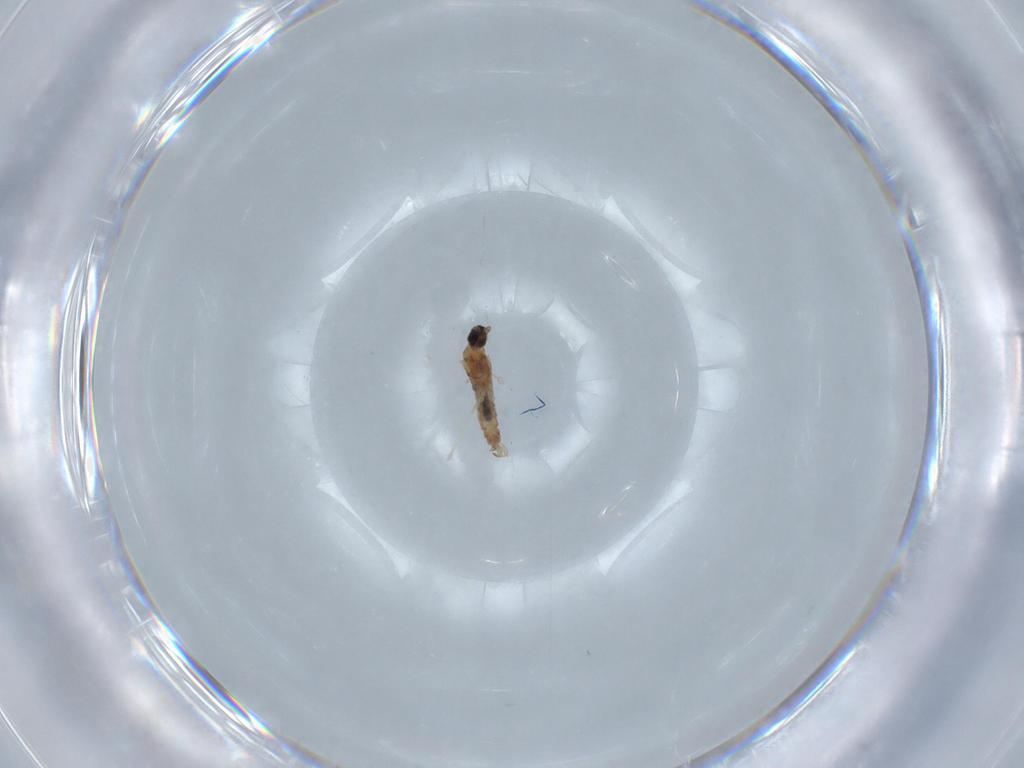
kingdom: Animalia
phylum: Arthropoda
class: Insecta
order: Diptera
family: Cecidomyiidae
